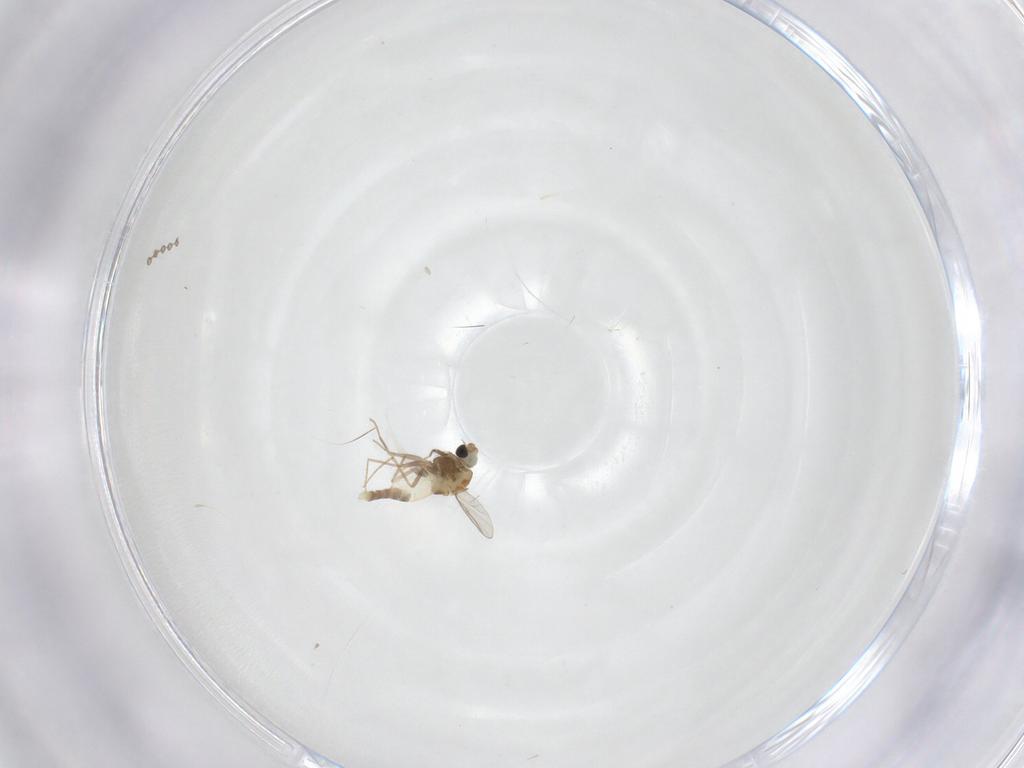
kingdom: Animalia
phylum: Arthropoda
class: Insecta
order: Diptera
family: Psychodidae
